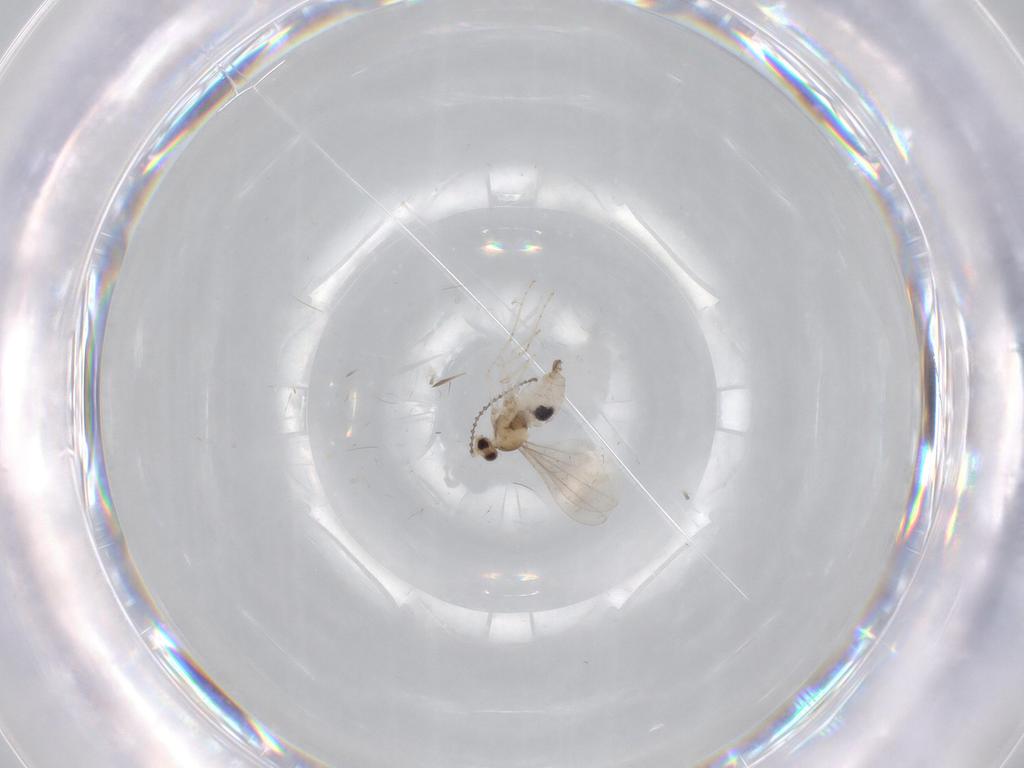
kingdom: Animalia
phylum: Arthropoda
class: Insecta
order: Diptera
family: Cecidomyiidae
